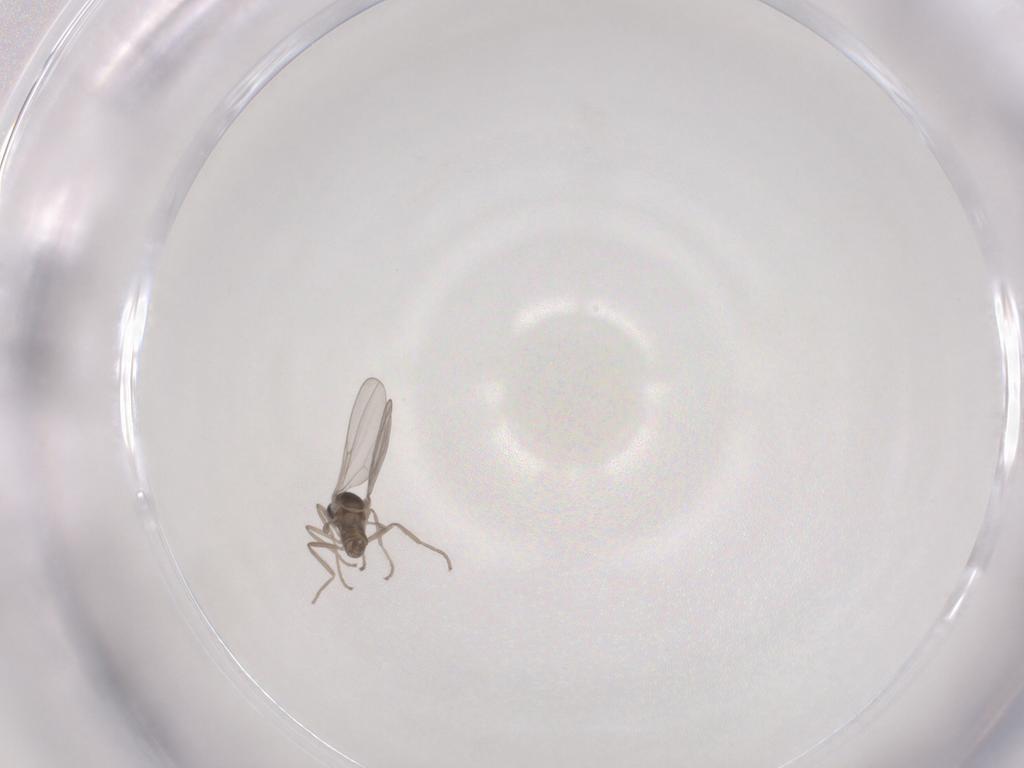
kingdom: Animalia
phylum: Arthropoda
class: Insecta
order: Diptera
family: Cecidomyiidae
